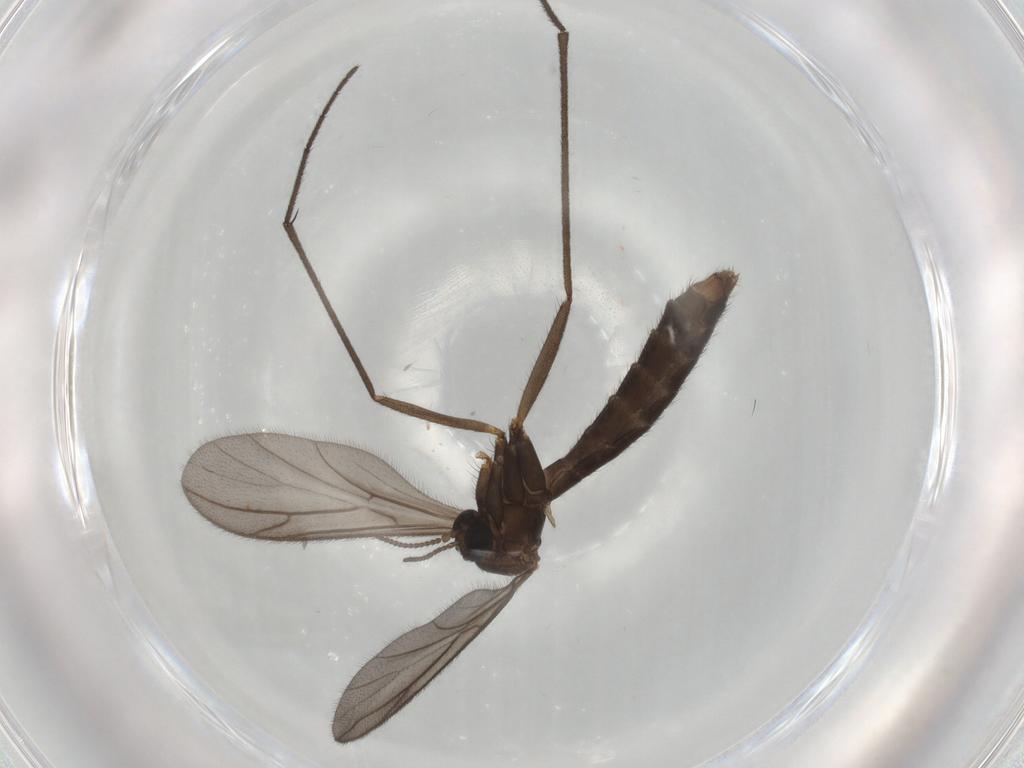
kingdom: Animalia
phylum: Arthropoda
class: Insecta
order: Diptera
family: Keroplatidae
